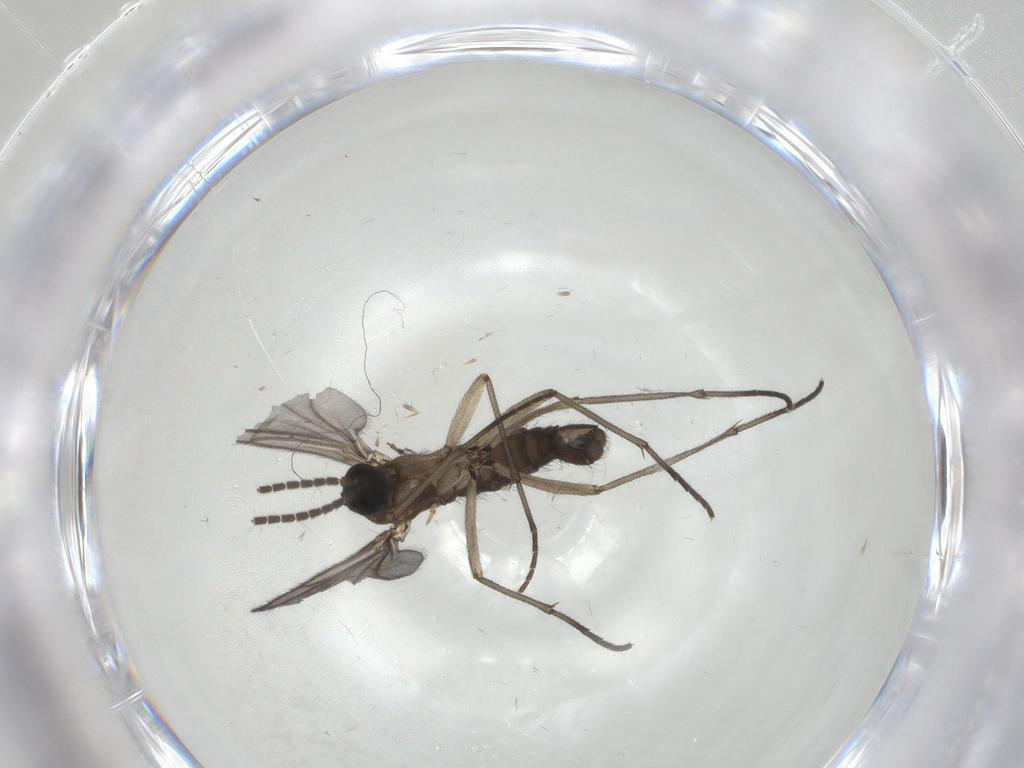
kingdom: Animalia
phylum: Arthropoda
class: Insecta
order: Diptera
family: Sciaridae
